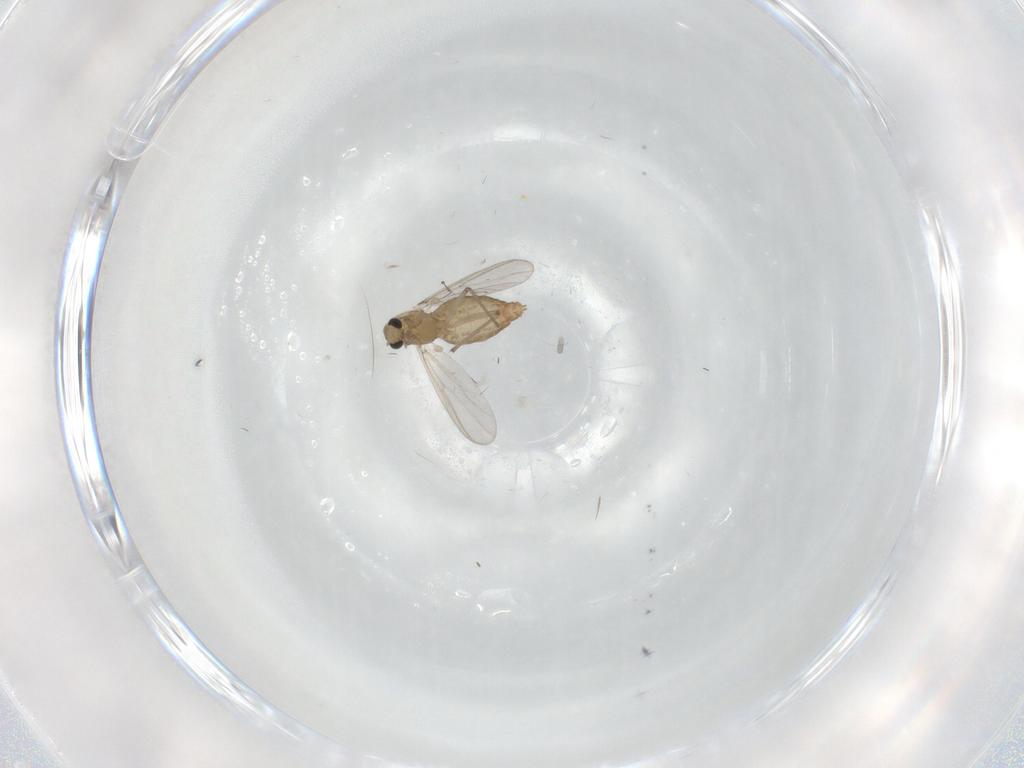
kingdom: Animalia
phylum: Arthropoda
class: Insecta
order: Diptera
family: Chironomidae
